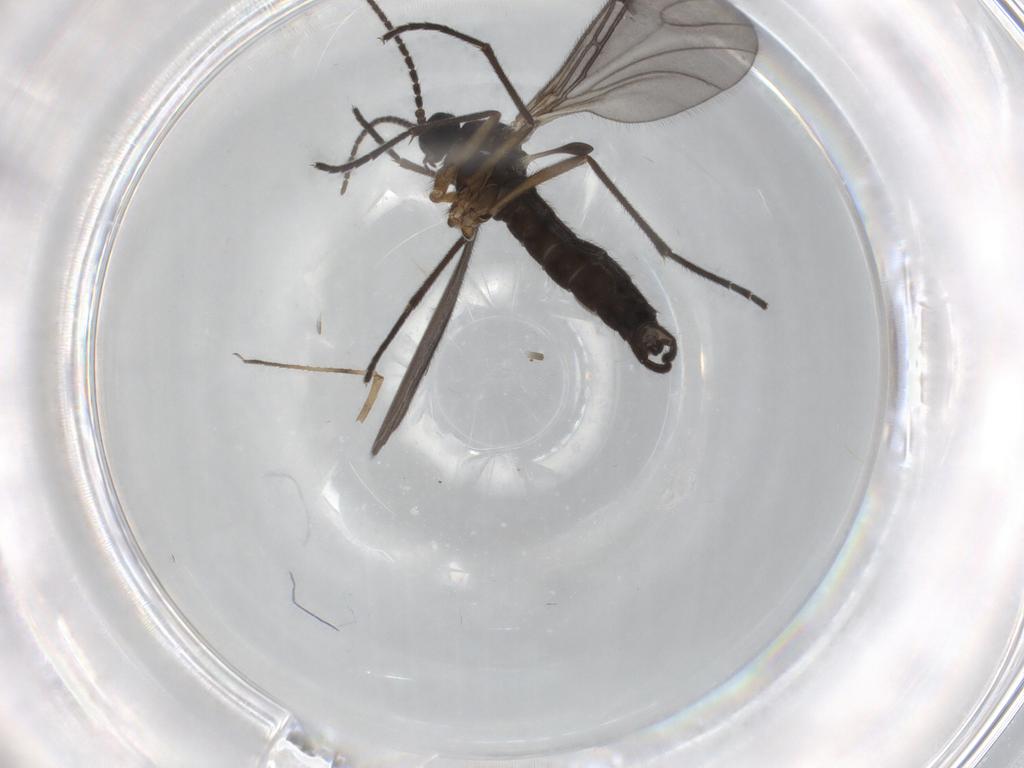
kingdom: Animalia
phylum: Arthropoda
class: Insecta
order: Diptera
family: Sciaridae
